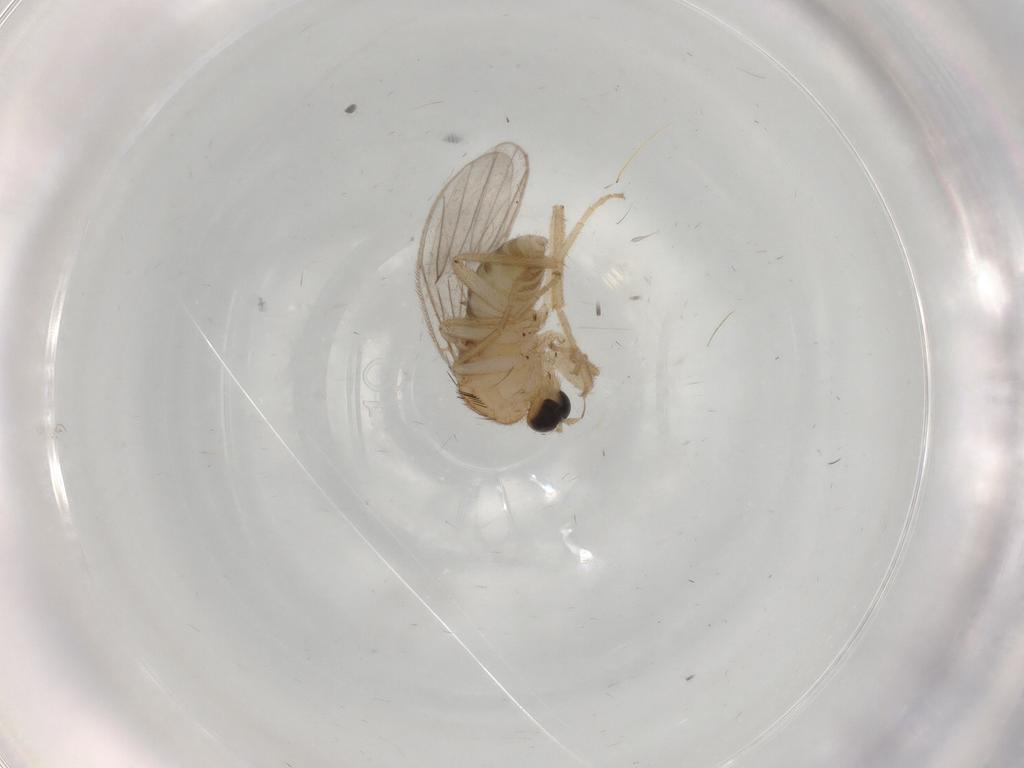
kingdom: Animalia
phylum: Arthropoda
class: Insecta
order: Diptera
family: Hybotidae
